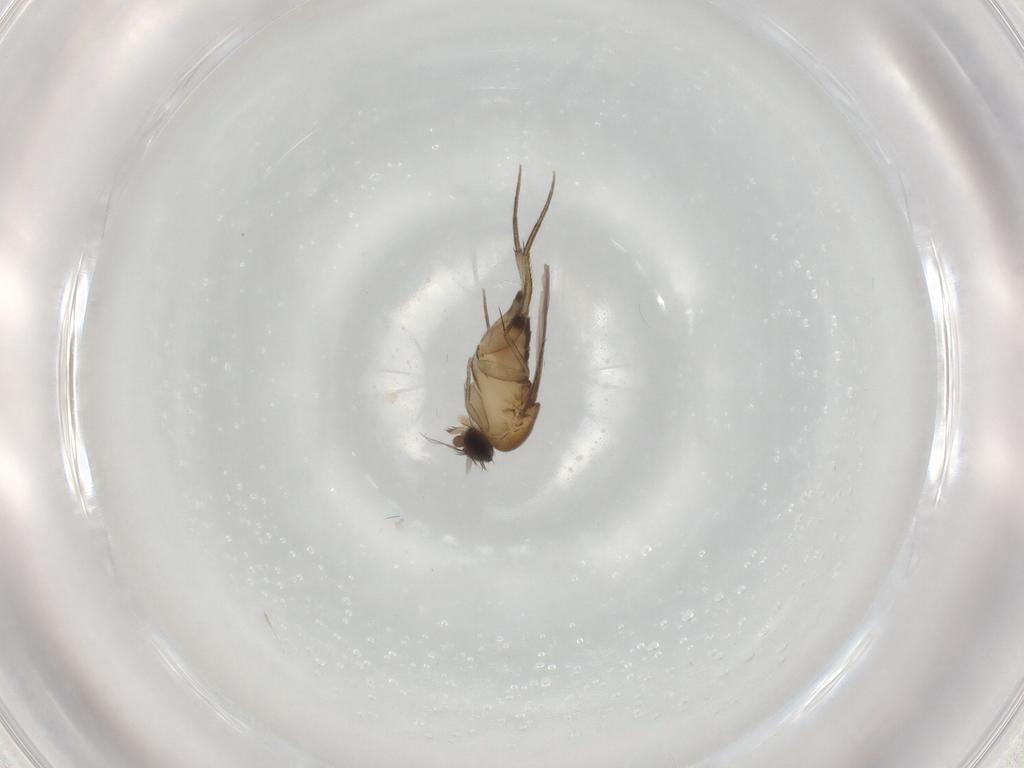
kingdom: Animalia
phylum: Arthropoda
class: Insecta
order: Diptera
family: Phoridae
